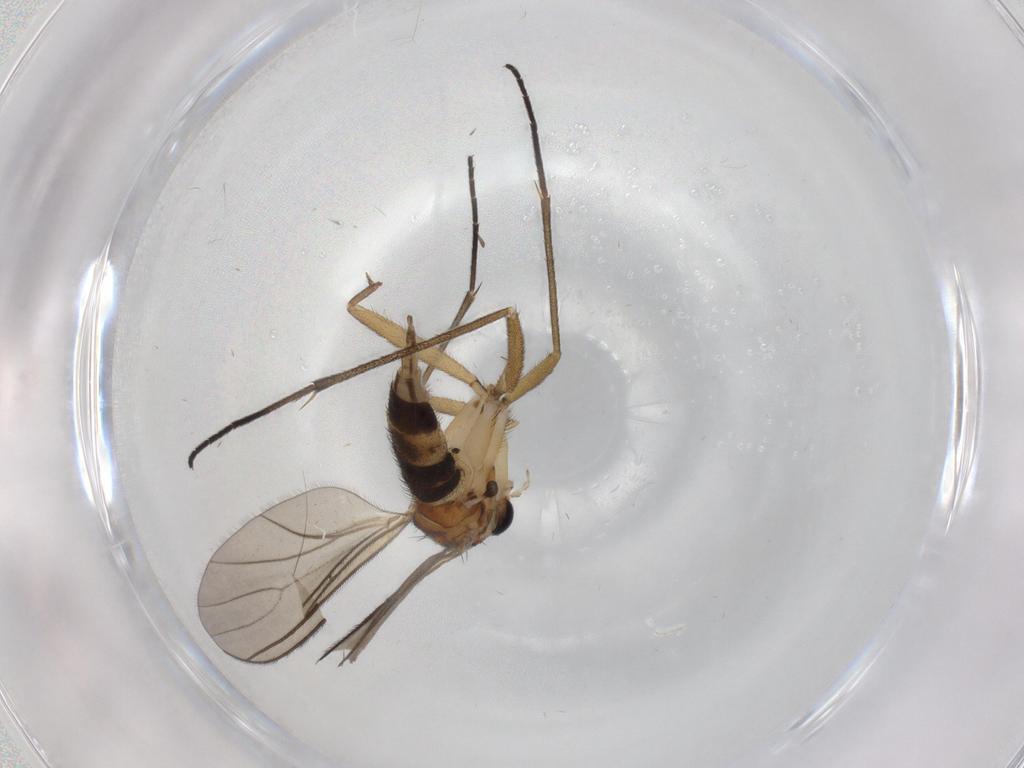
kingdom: Animalia
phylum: Arthropoda
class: Insecta
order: Diptera
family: Sciaridae
